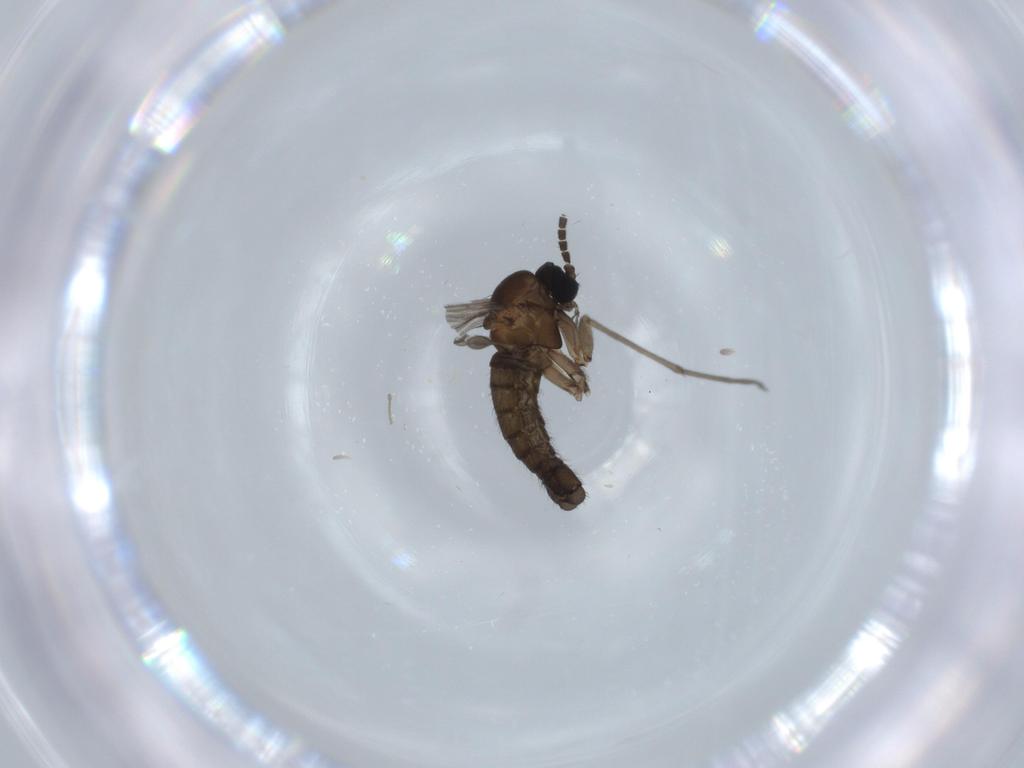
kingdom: Animalia
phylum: Arthropoda
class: Insecta
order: Diptera
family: Sciaridae
